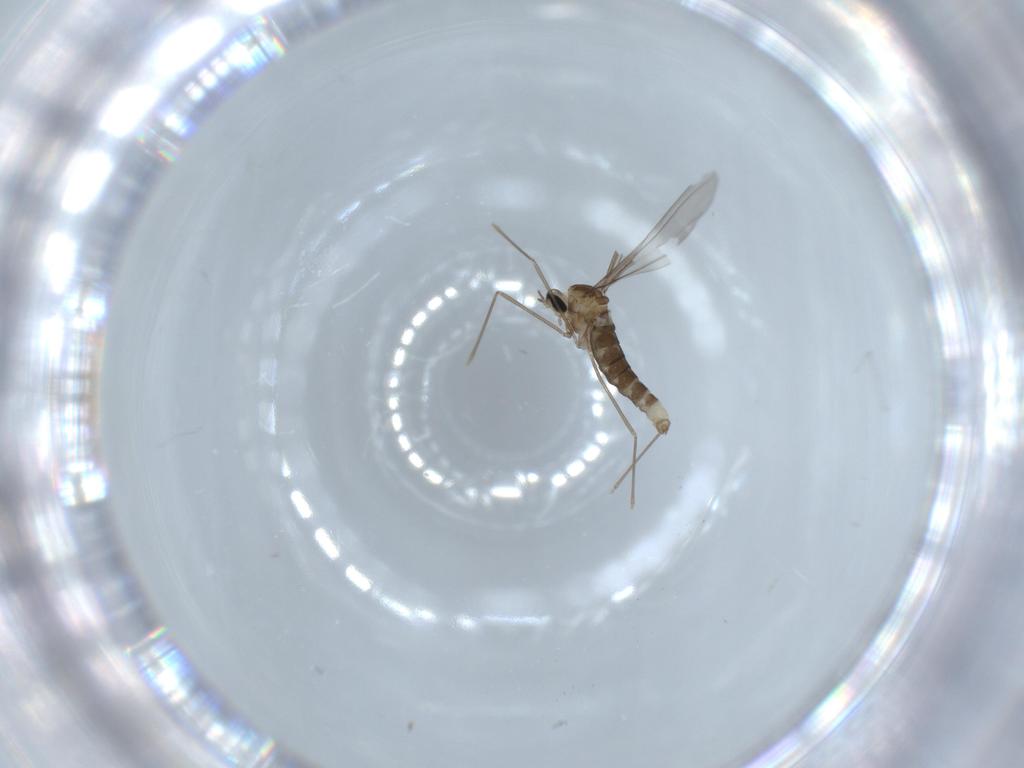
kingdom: Animalia
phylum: Arthropoda
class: Insecta
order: Diptera
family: Cecidomyiidae
